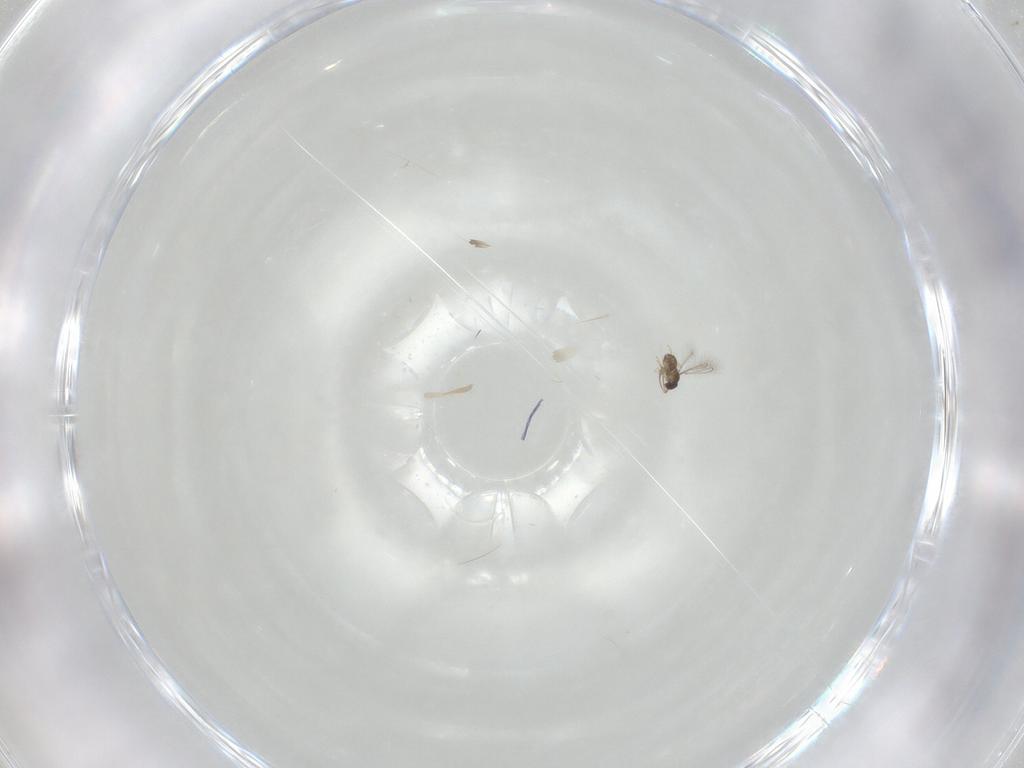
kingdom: Animalia
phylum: Arthropoda
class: Insecta
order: Hymenoptera
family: Mymaridae
